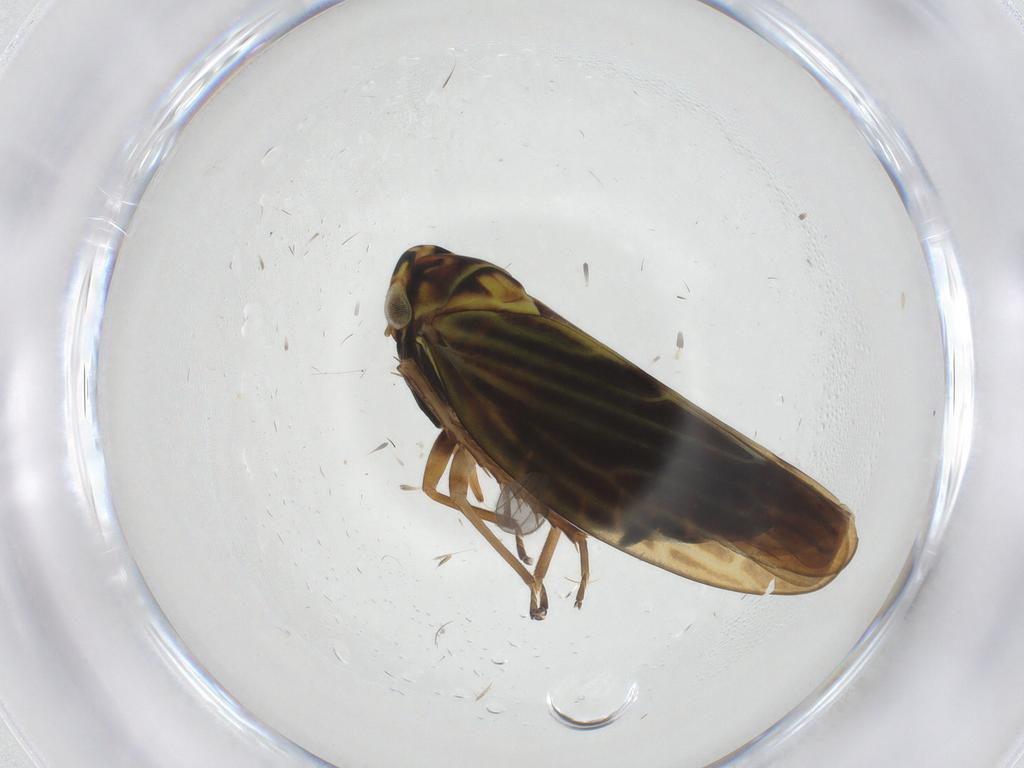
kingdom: Animalia
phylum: Arthropoda
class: Insecta
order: Hemiptera
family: Cicadellidae
